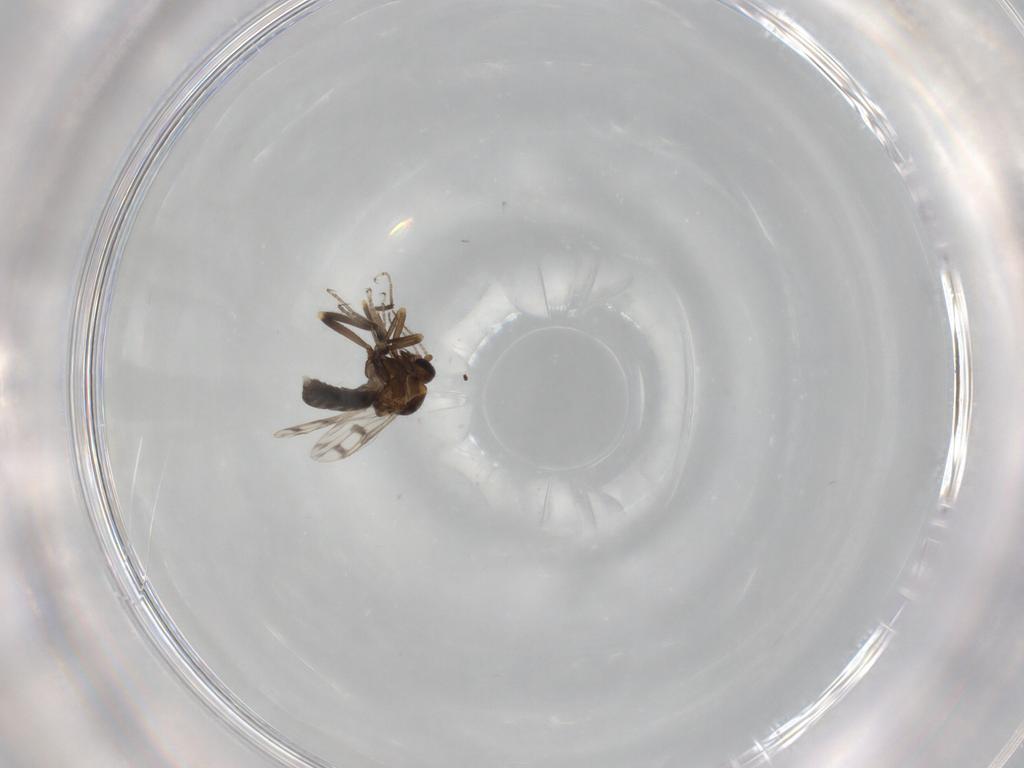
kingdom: Animalia
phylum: Arthropoda
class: Insecta
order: Diptera
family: Ceratopogonidae
